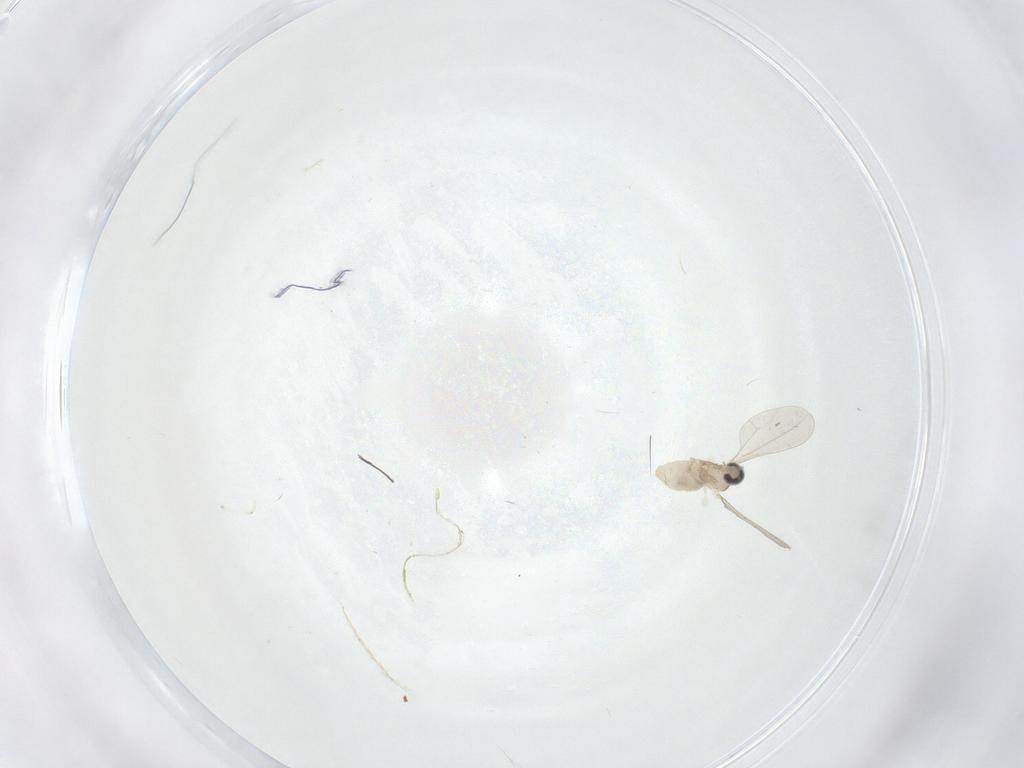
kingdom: Animalia
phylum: Arthropoda
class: Insecta
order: Diptera
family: Cecidomyiidae
